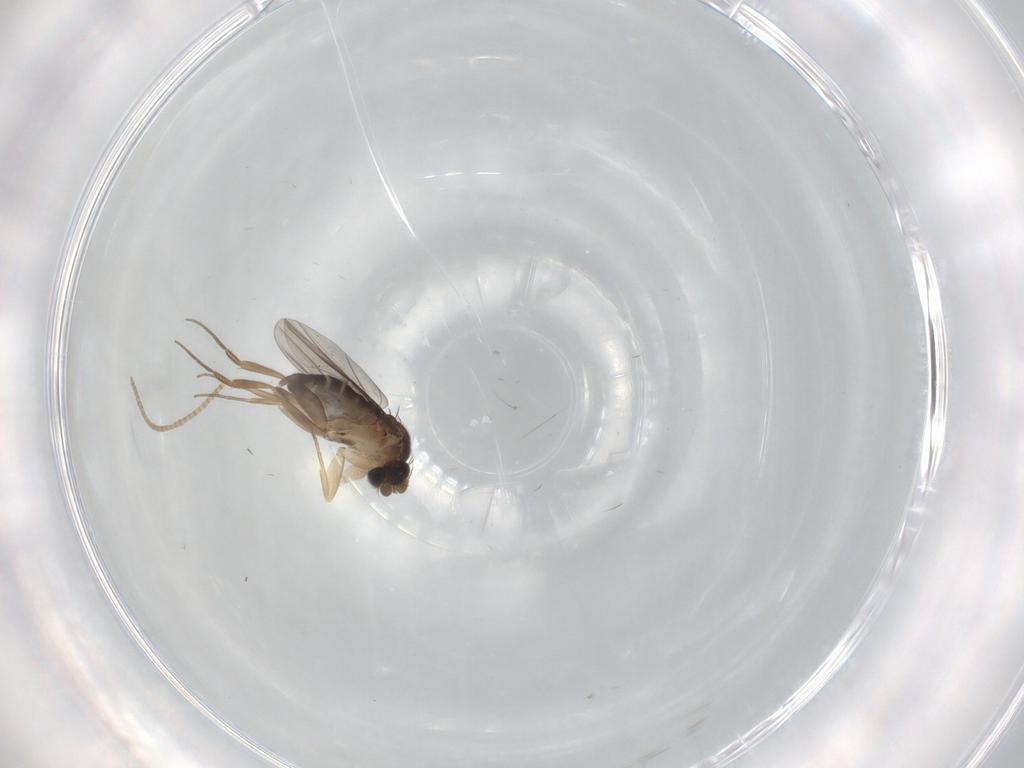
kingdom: Animalia
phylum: Arthropoda
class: Insecta
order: Diptera
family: Phoridae
